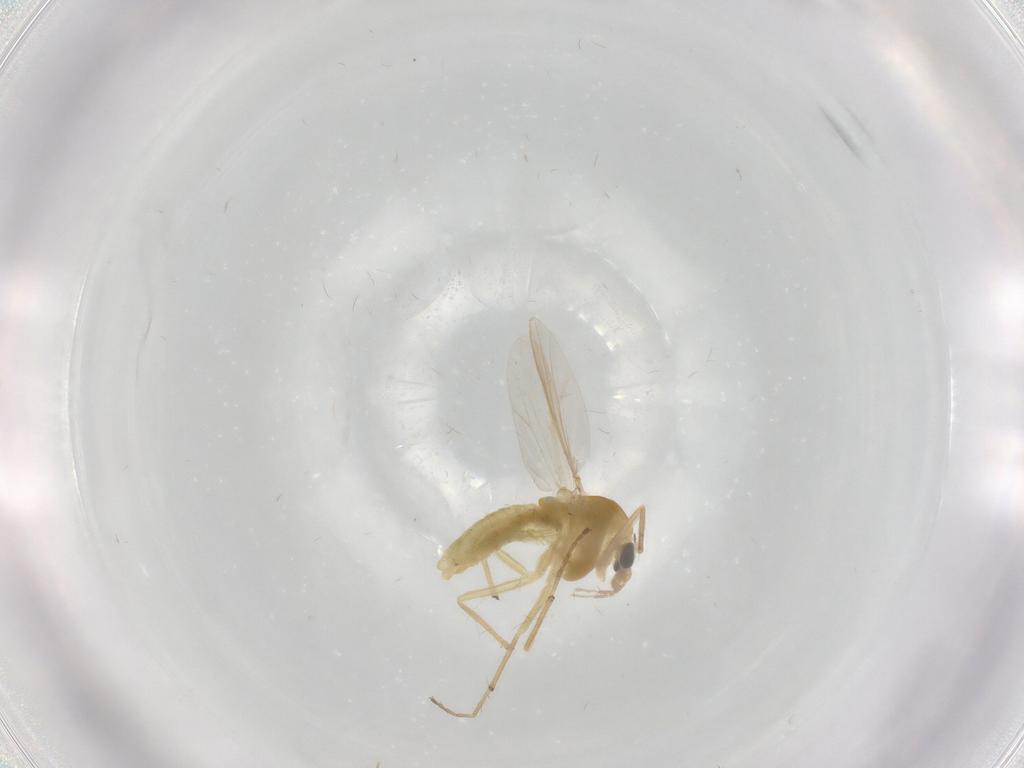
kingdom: Animalia
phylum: Arthropoda
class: Insecta
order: Diptera
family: Chironomidae
